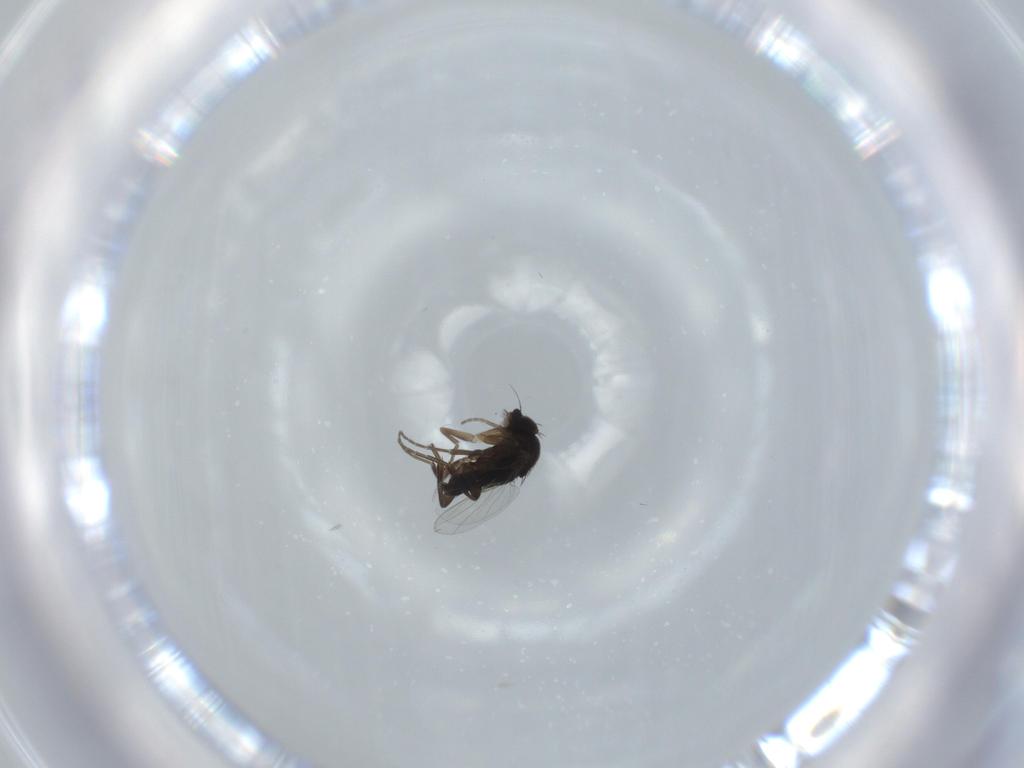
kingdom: Animalia
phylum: Arthropoda
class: Insecta
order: Diptera
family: Phoridae
